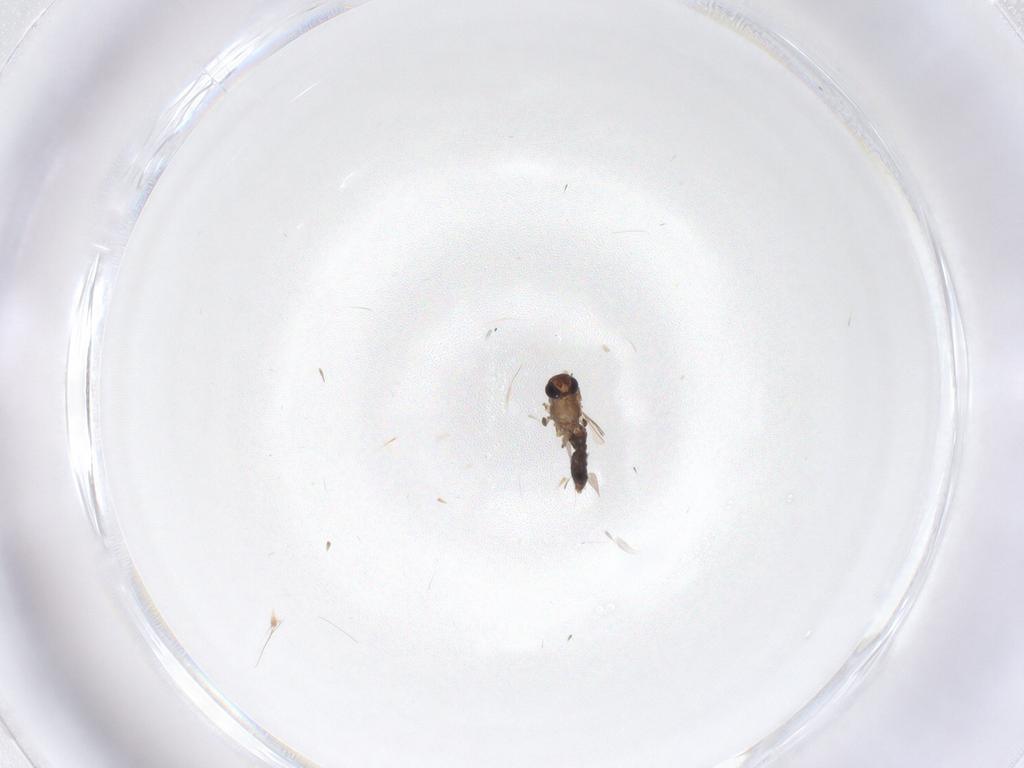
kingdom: Animalia
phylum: Arthropoda
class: Insecta
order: Diptera
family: Chironomidae
